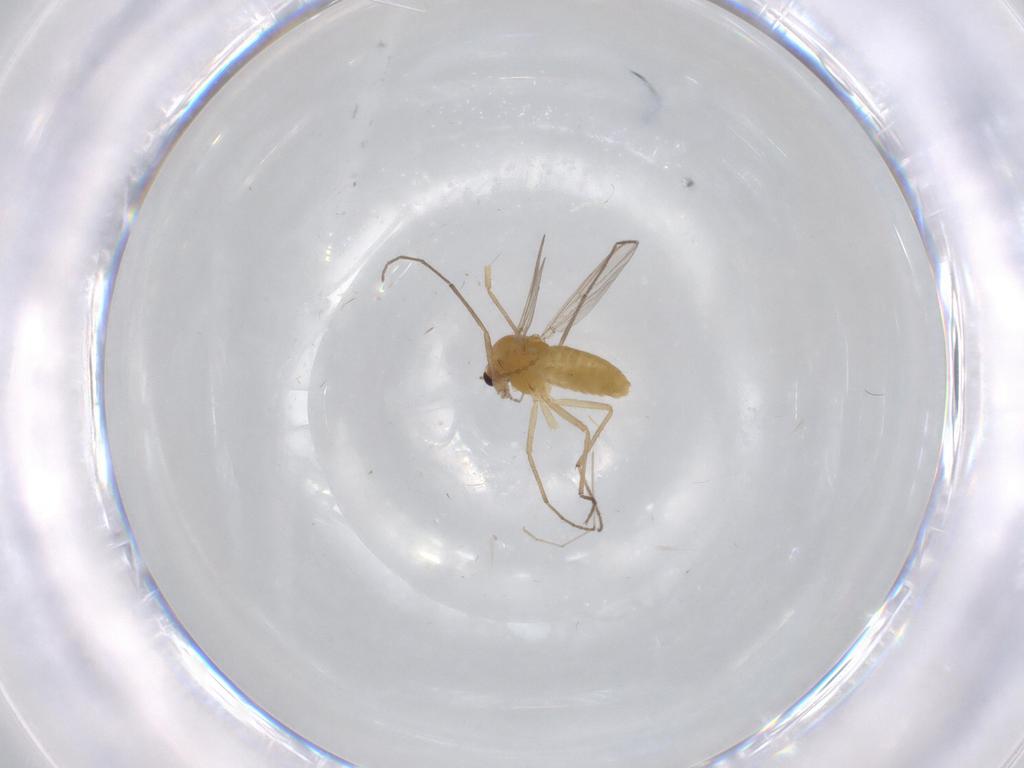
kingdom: Animalia
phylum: Arthropoda
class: Insecta
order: Diptera
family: Chironomidae
